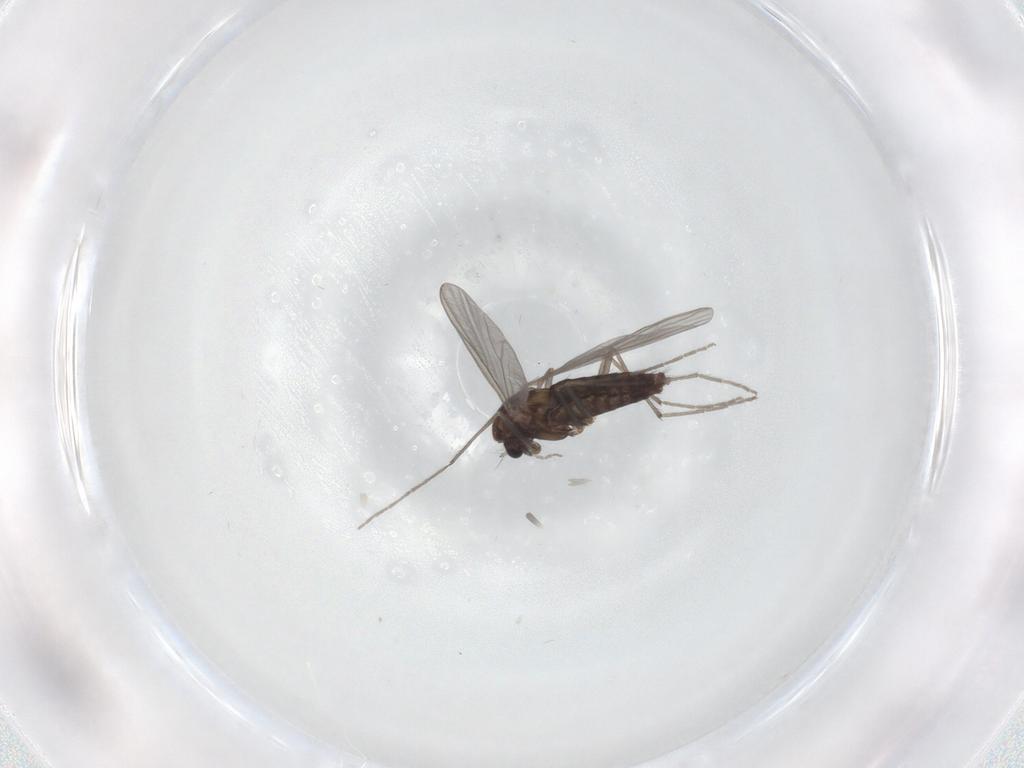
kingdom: Animalia
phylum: Arthropoda
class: Insecta
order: Diptera
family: Chironomidae
